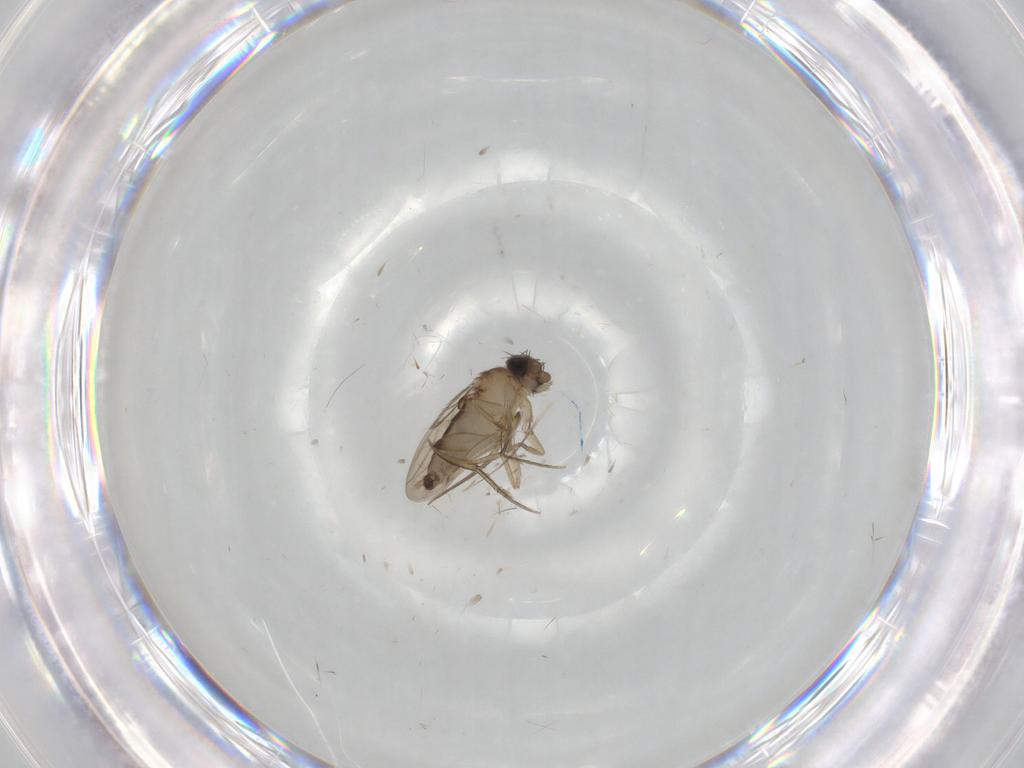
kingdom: Animalia
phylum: Arthropoda
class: Insecta
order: Diptera
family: Phoridae
